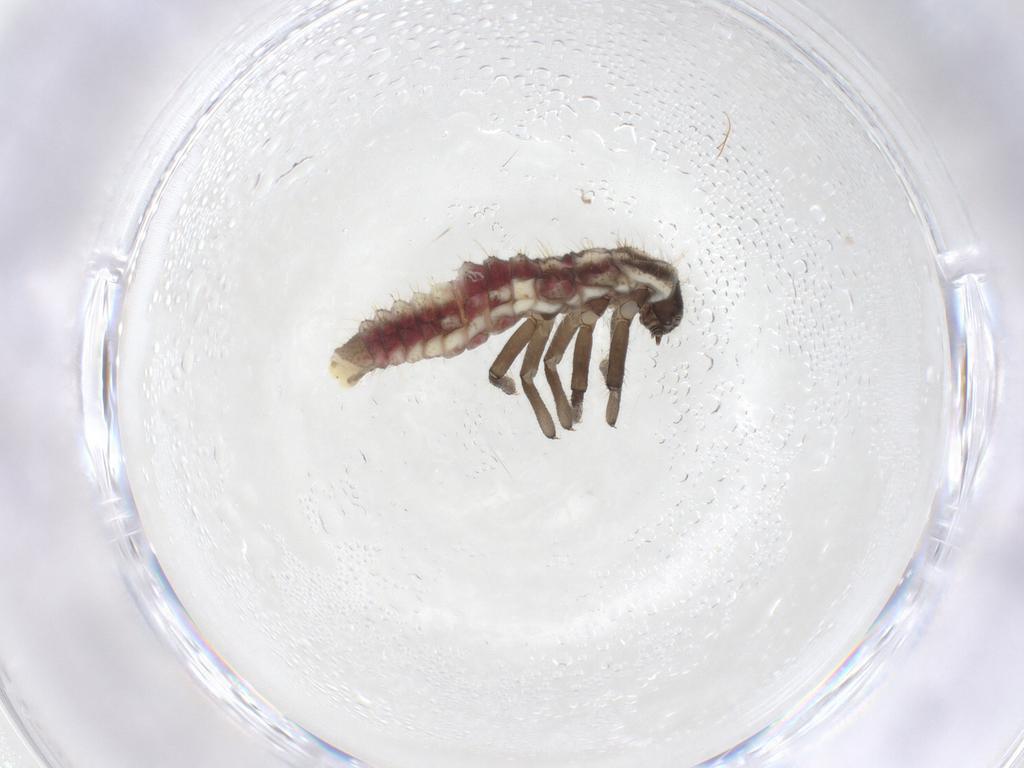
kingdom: Animalia
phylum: Arthropoda
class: Insecta
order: Coleoptera
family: Coccinellidae
